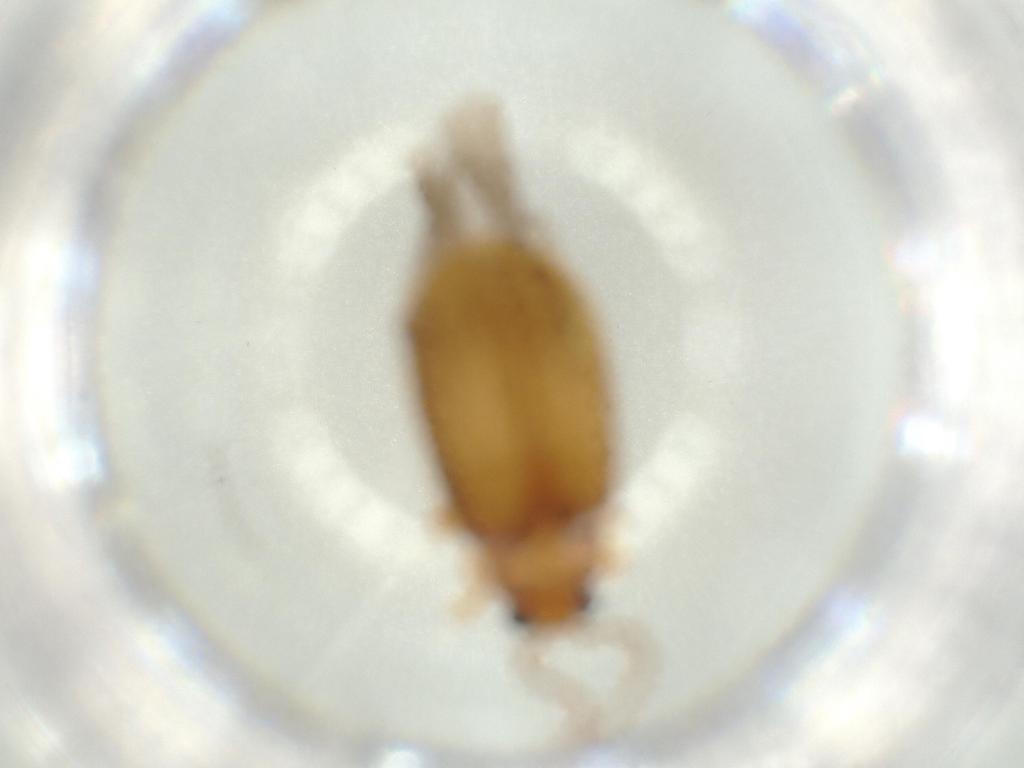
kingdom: Animalia
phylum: Arthropoda
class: Insecta
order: Coleoptera
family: Chrysomelidae
